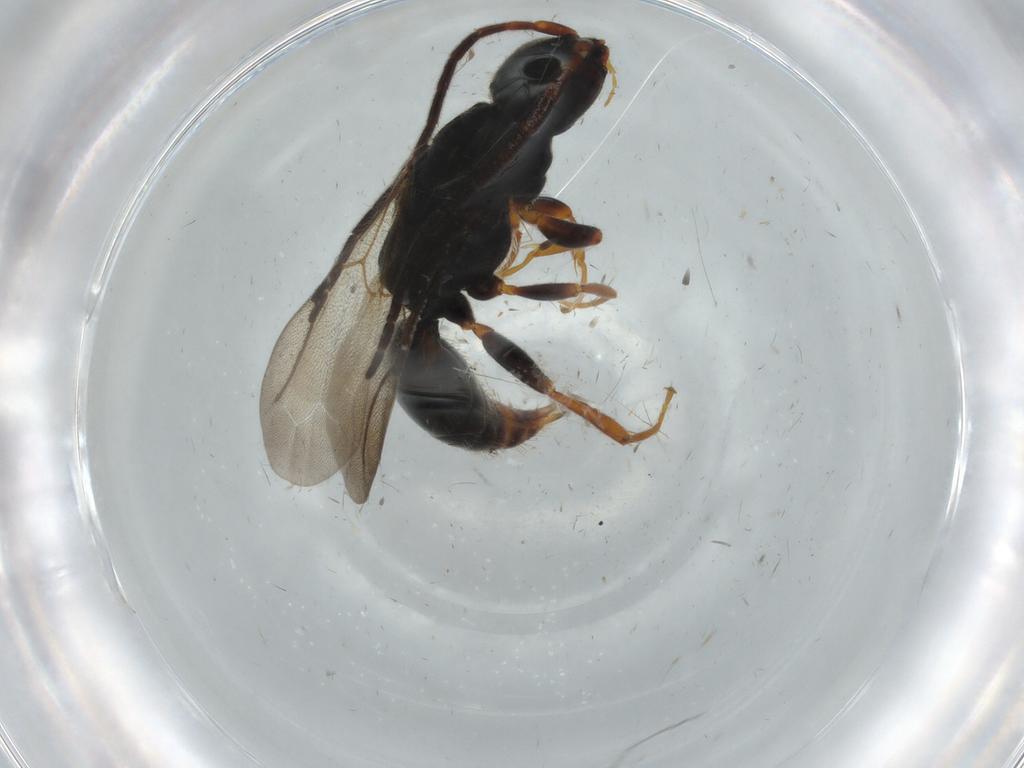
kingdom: Animalia
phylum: Arthropoda
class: Insecta
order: Hymenoptera
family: Bethylidae
